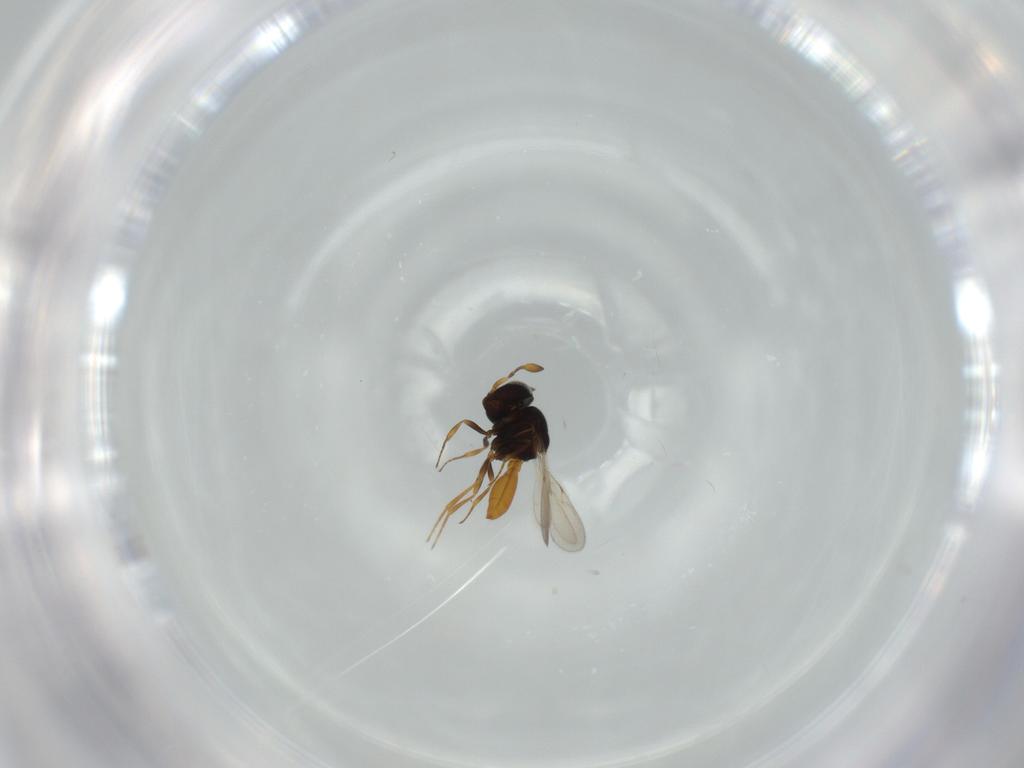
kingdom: Animalia
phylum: Arthropoda
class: Insecta
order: Hymenoptera
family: Scelionidae
